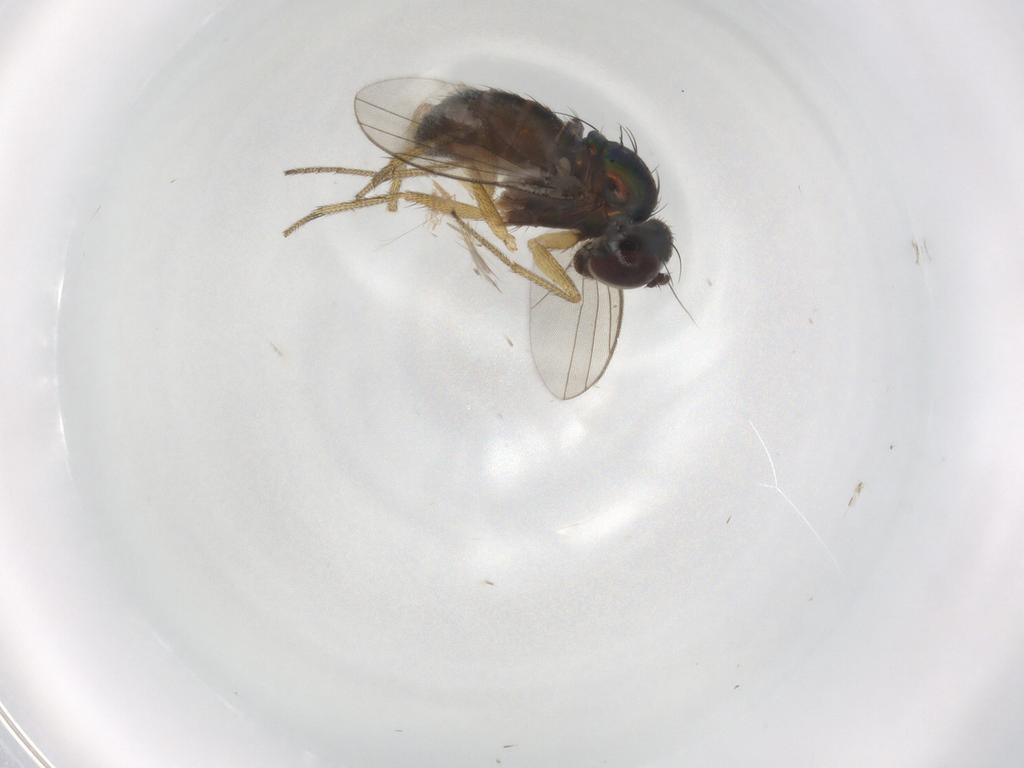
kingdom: Animalia
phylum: Arthropoda
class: Insecta
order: Diptera
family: Dolichopodidae
